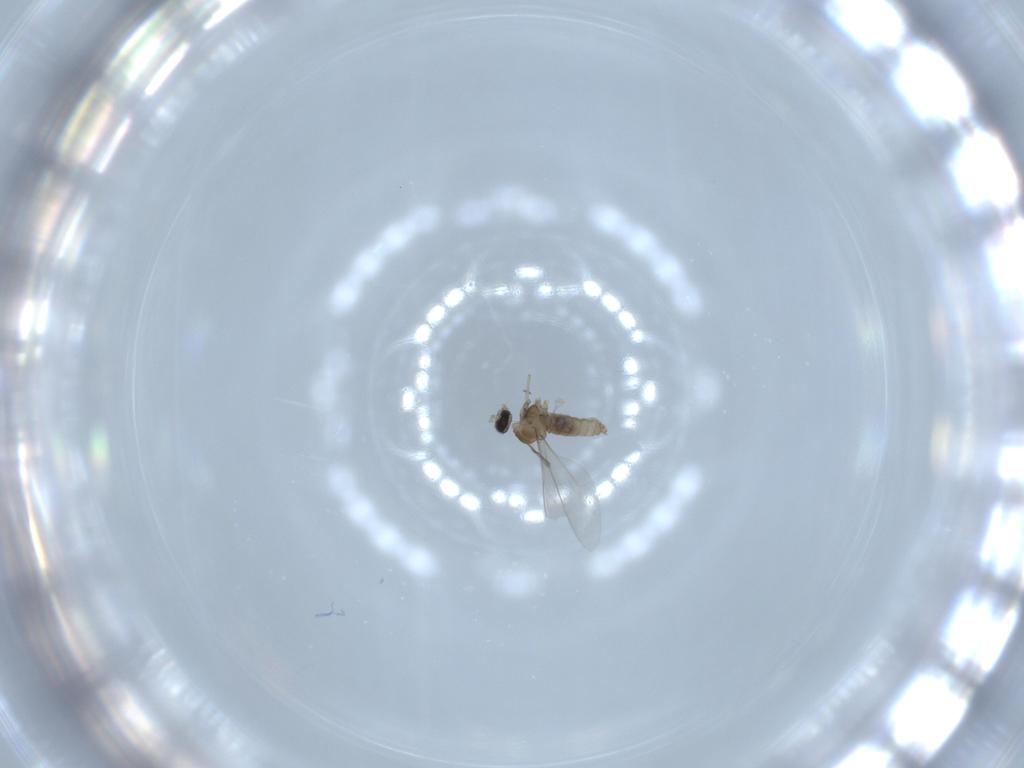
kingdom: Animalia
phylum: Arthropoda
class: Insecta
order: Diptera
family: Cecidomyiidae
